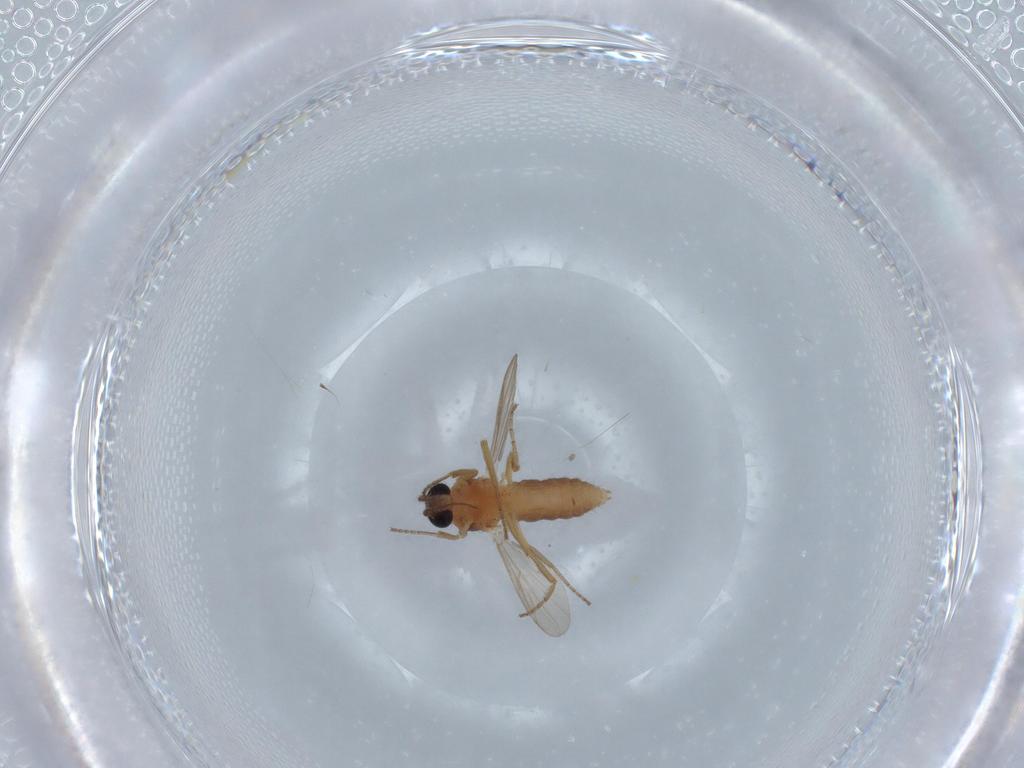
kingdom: Animalia
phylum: Arthropoda
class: Insecta
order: Diptera
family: Ceratopogonidae
